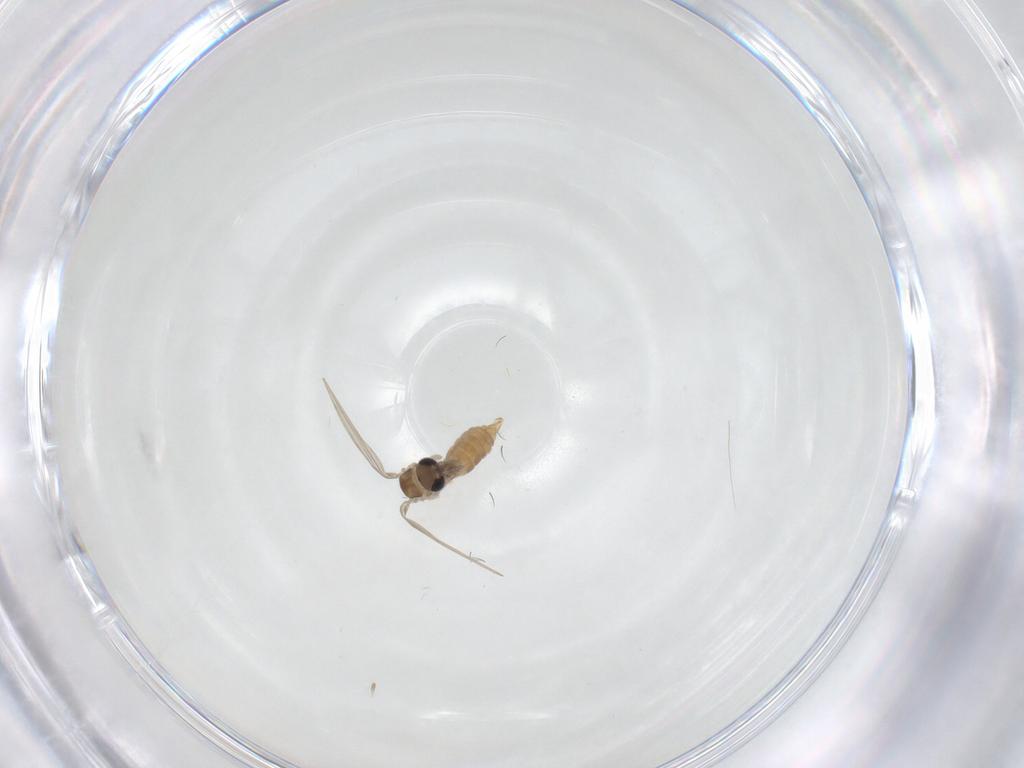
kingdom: Animalia
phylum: Arthropoda
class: Insecta
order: Diptera
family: Psychodidae
